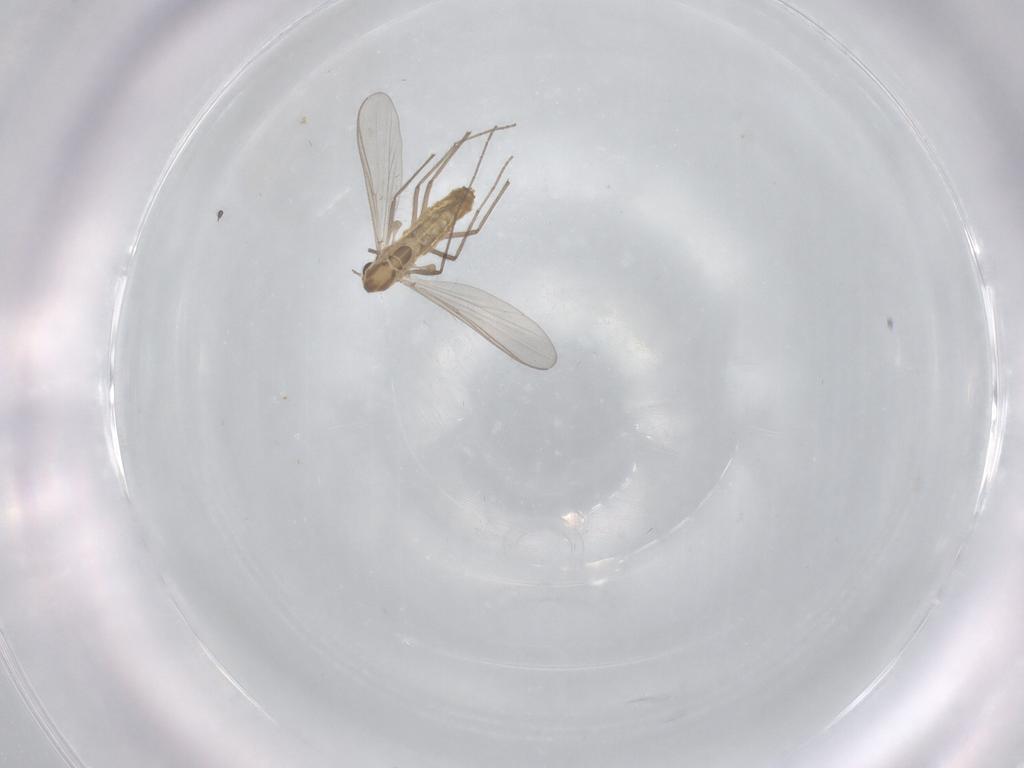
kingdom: Animalia
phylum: Arthropoda
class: Insecta
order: Diptera
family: Chironomidae
